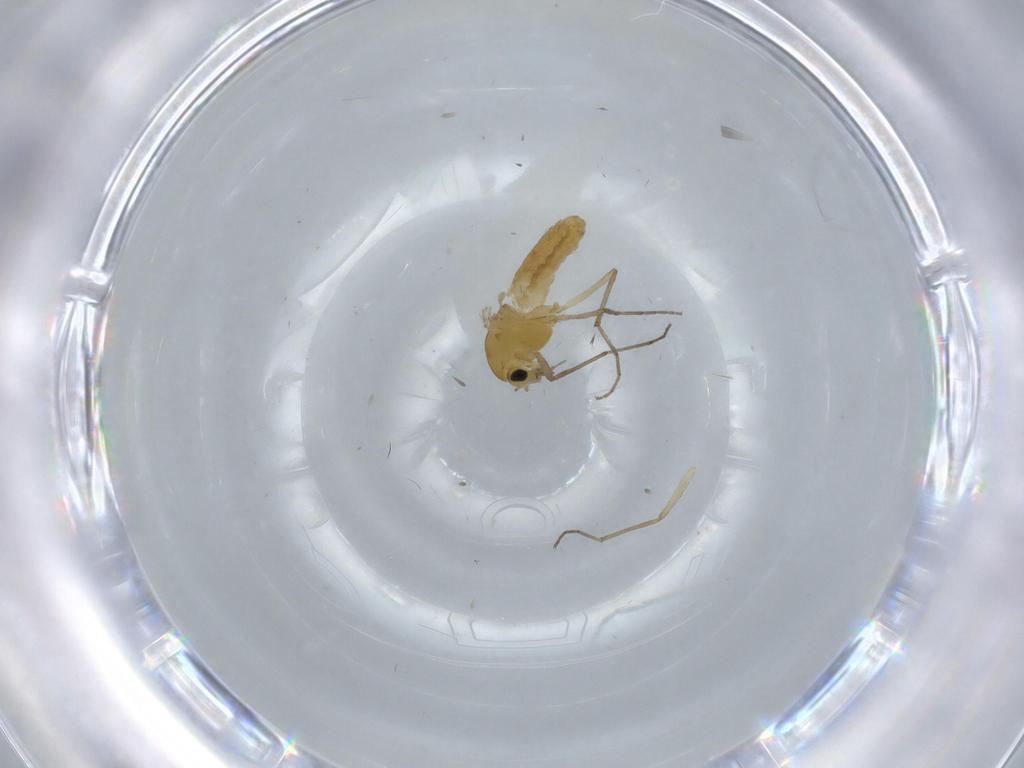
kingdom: Animalia
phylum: Arthropoda
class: Insecta
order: Diptera
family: Chironomidae
